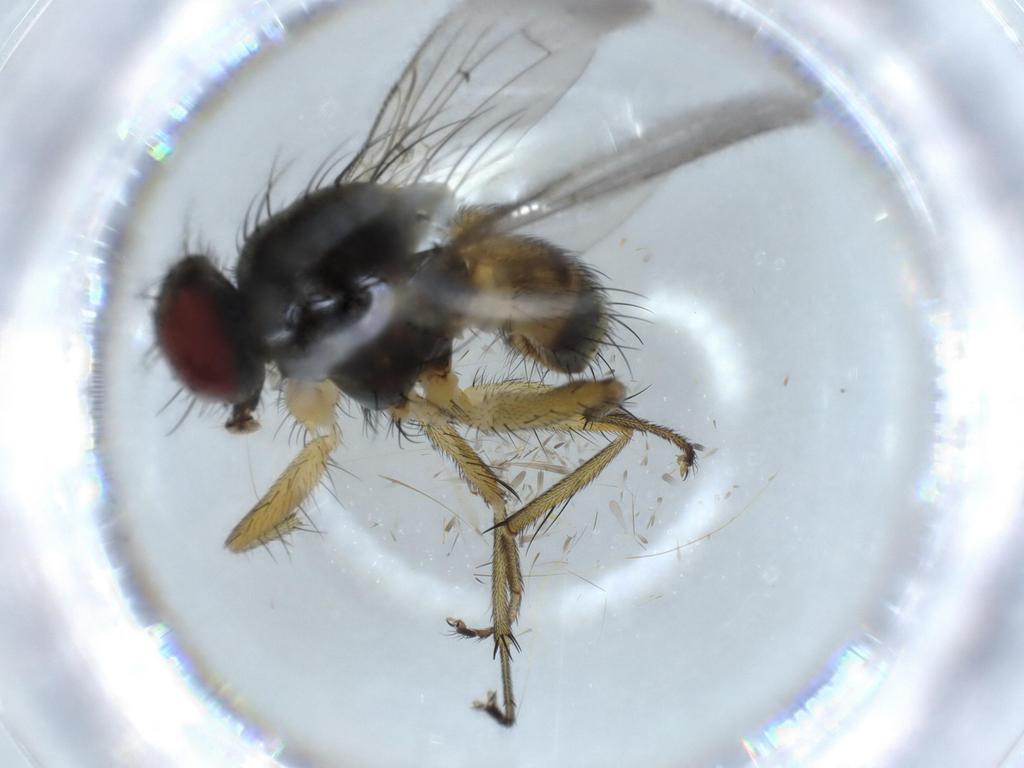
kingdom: Animalia
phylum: Arthropoda
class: Insecta
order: Diptera
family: Muscidae
